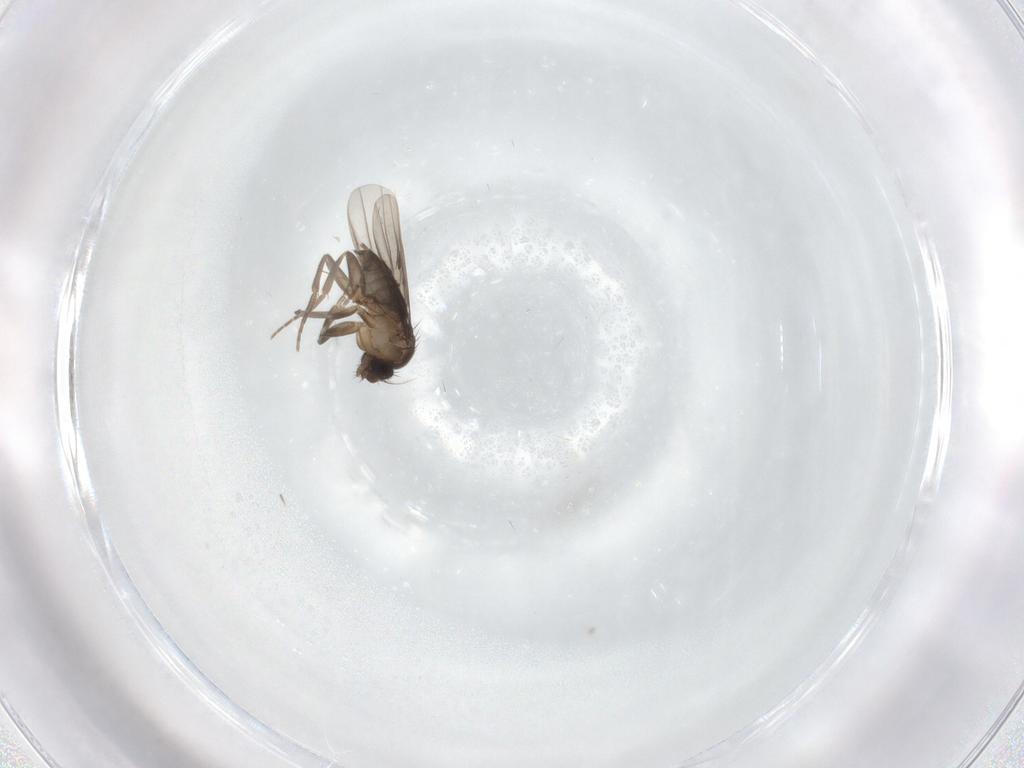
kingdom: Animalia
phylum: Arthropoda
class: Insecta
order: Diptera
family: Phoridae
